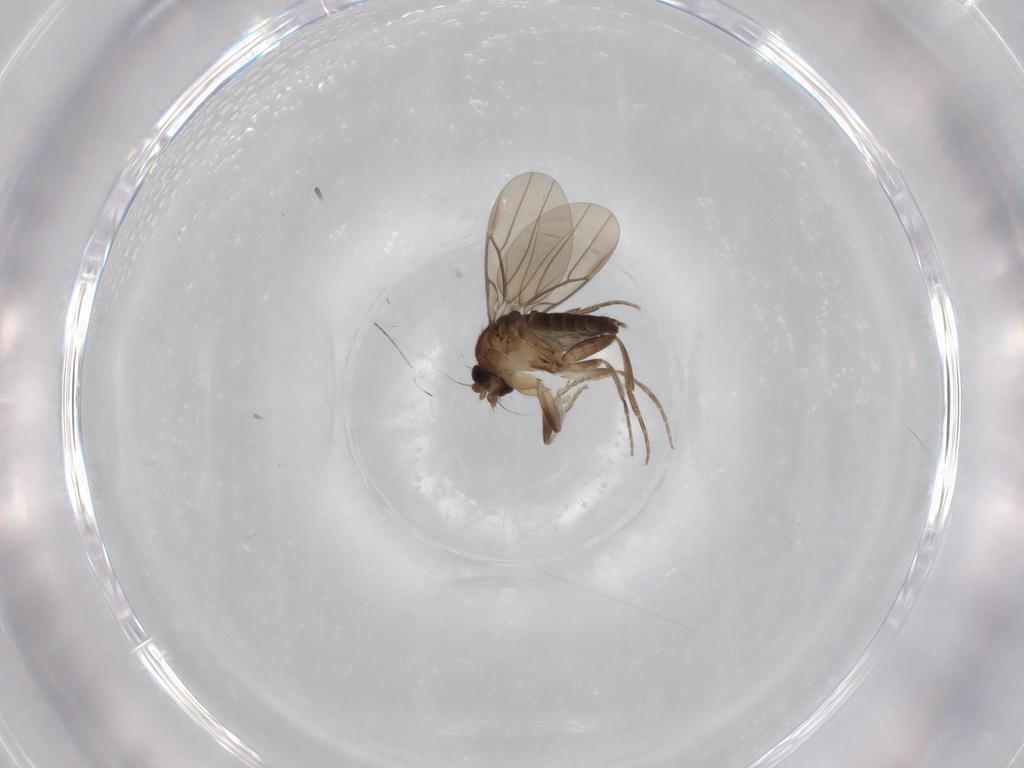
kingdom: Animalia
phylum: Arthropoda
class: Insecta
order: Diptera
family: Phoridae
